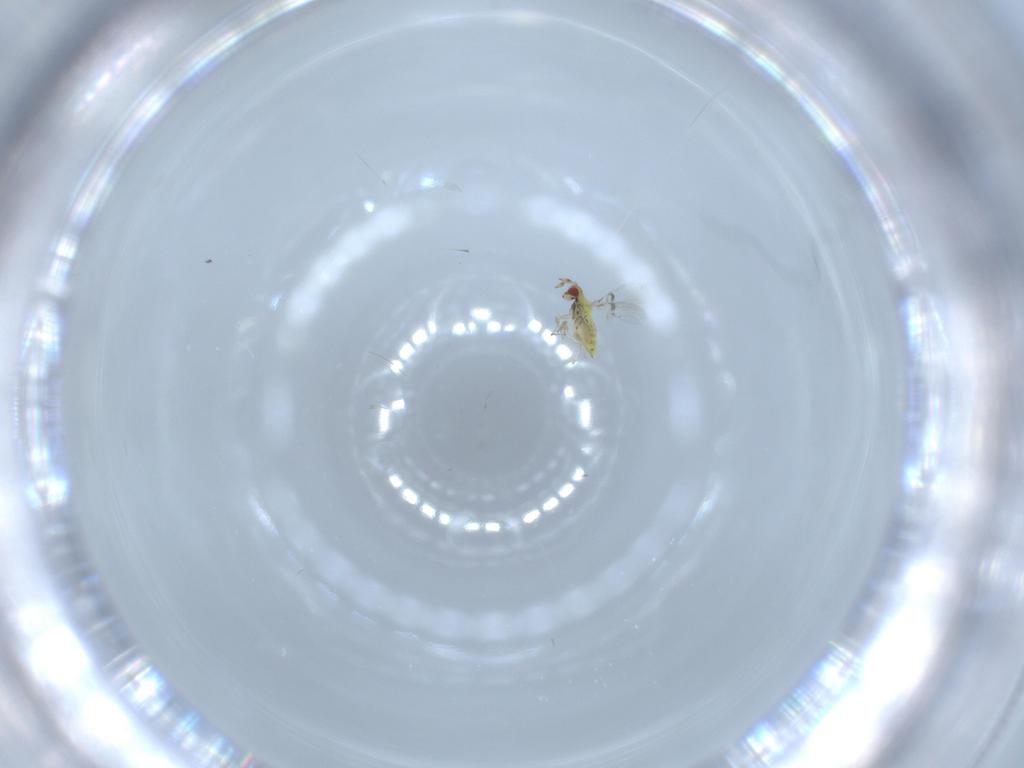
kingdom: Animalia
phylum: Arthropoda
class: Insecta
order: Hymenoptera
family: Trichogrammatidae
